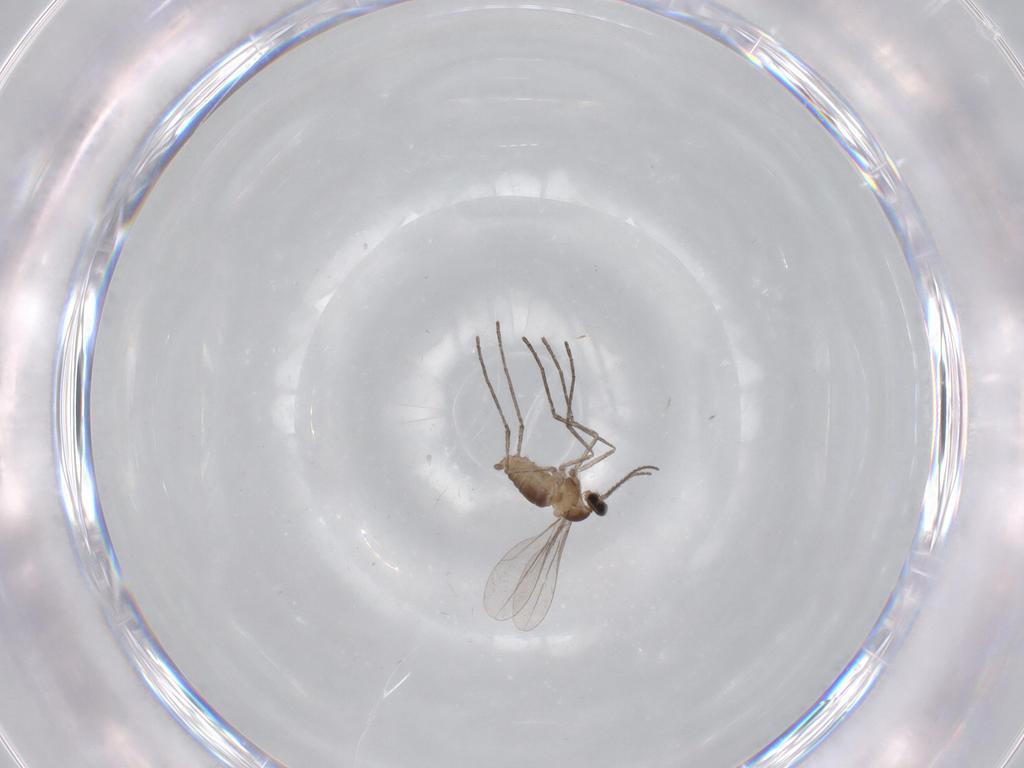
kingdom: Animalia
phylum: Arthropoda
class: Insecta
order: Diptera
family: Cecidomyiidae
